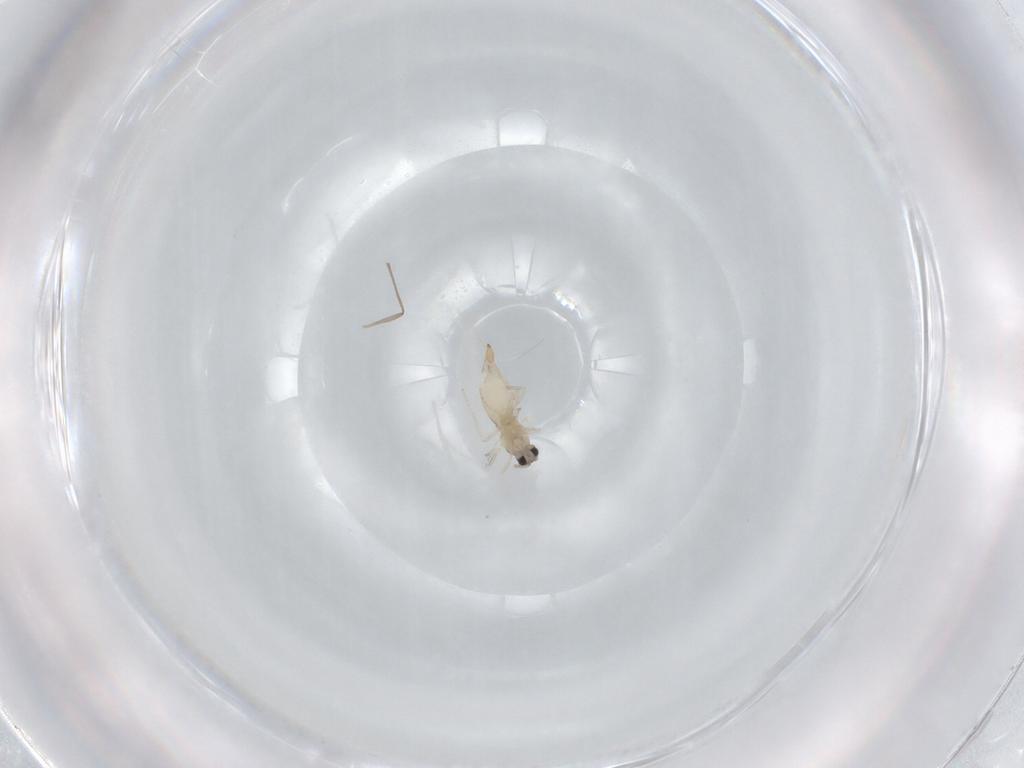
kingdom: Animalia
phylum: Arthropoda
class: Insecta
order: Diptera
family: Cecidomyiidae
